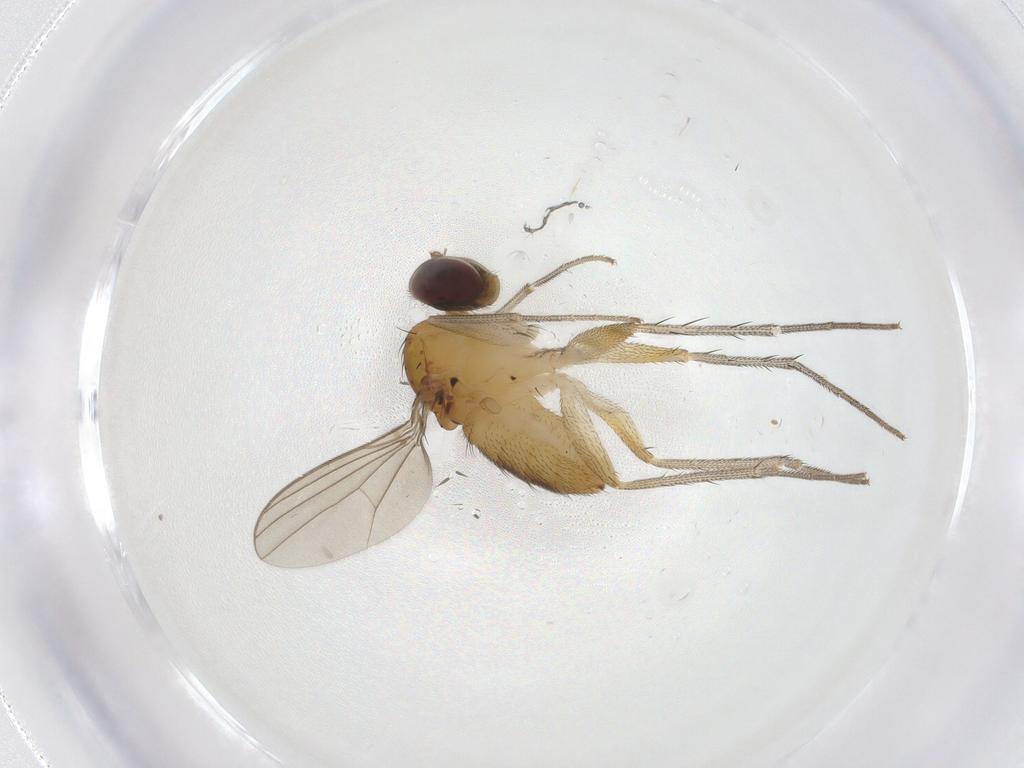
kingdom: Animalia
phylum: Arthropoda
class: Insecta
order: Diptera
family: Dolichopodidae
